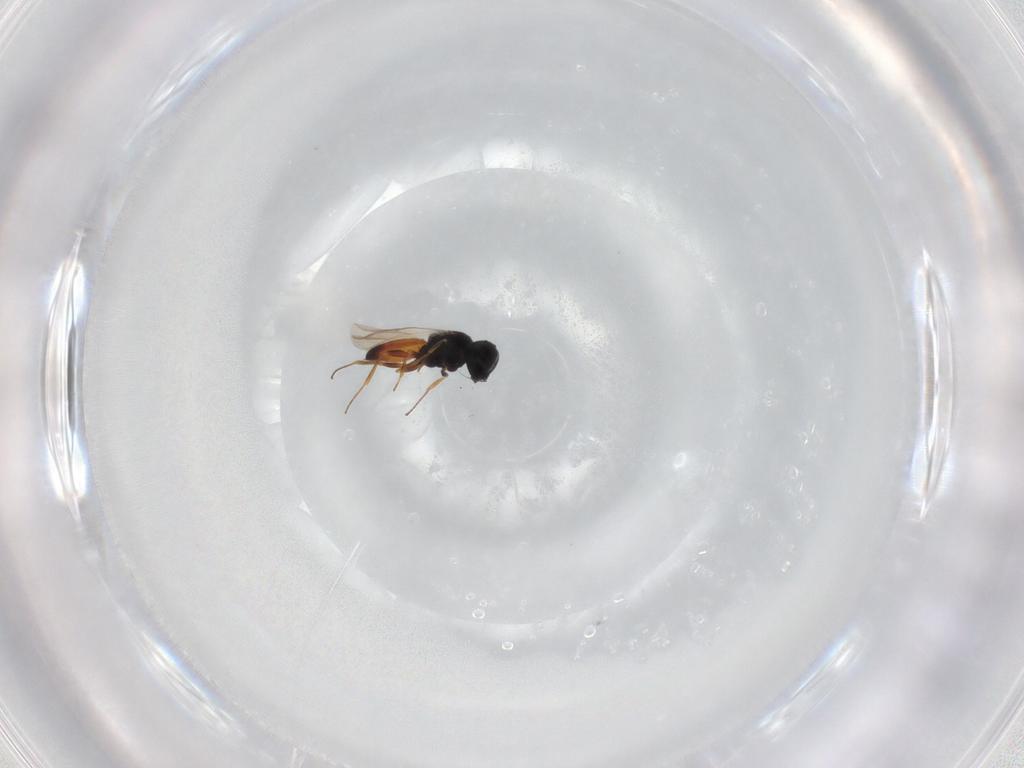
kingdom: Animalia
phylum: Arthropoda
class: Insecta
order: Hymenoptera
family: Scelionidae
